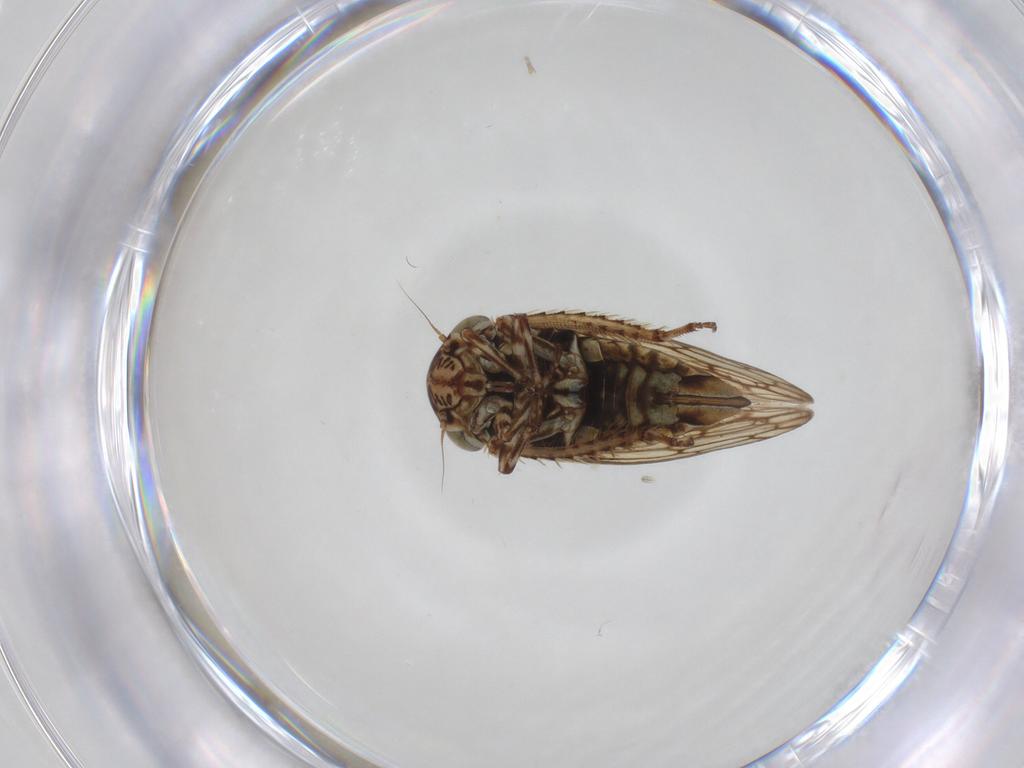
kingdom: Animalia
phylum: Arthropoda
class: Insecta
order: Hemiptera
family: Cicadellidae
